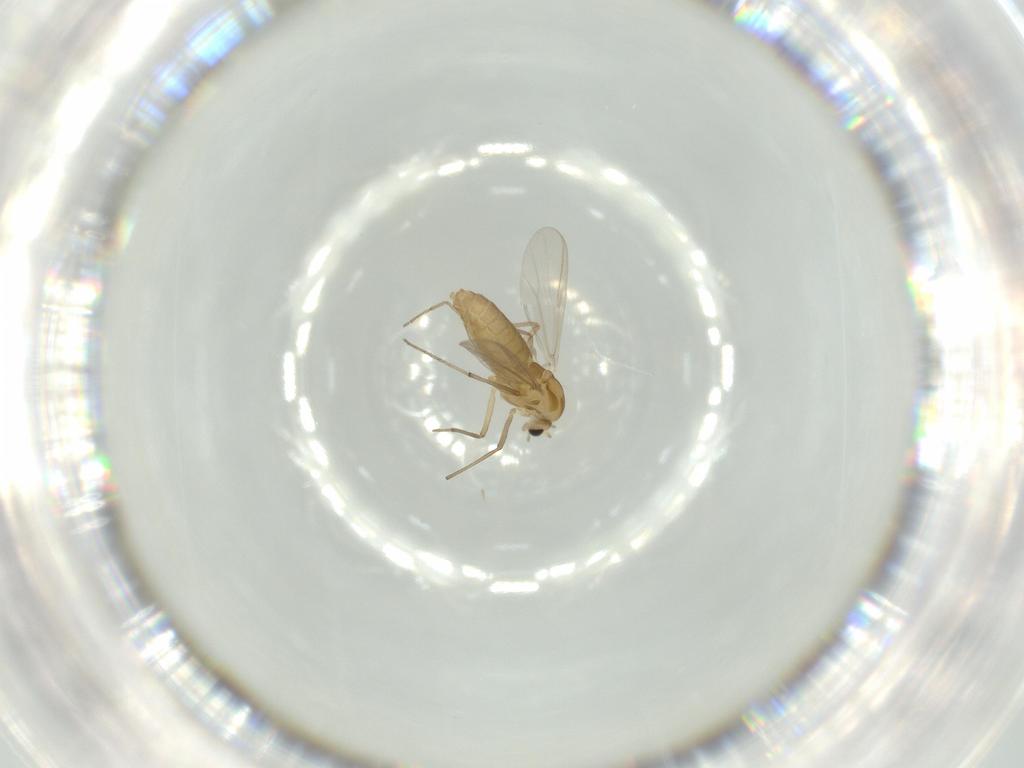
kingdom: Animalia
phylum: Arthropoda
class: Insecta
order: Diptera
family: Chironomidae
